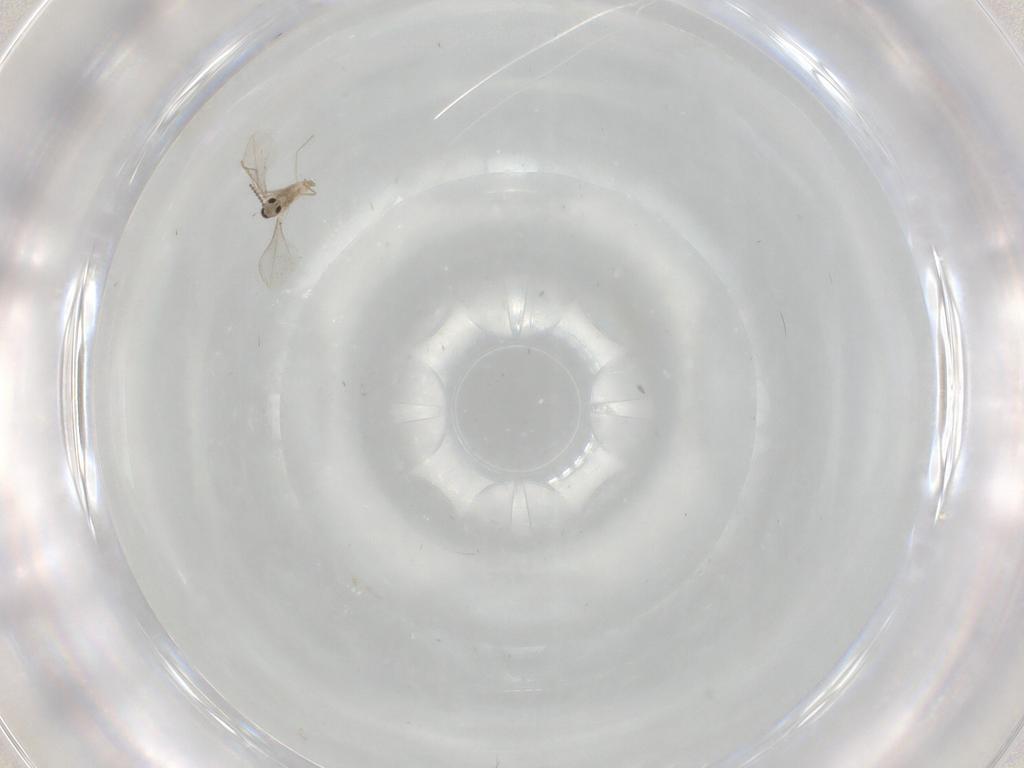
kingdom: Animalia
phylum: Arthropoda
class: Insecta
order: Diptera
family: Cecidomyiidae
